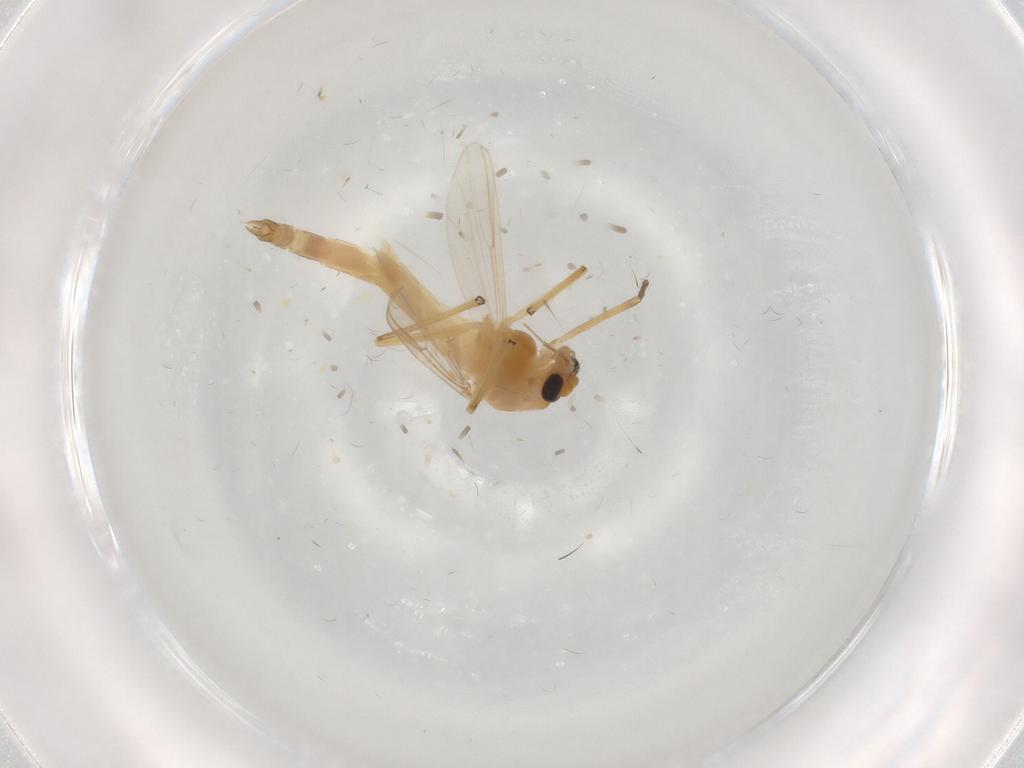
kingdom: Animalia
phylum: Arthropoda
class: Insecta
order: Diptera
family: Chironomidae
